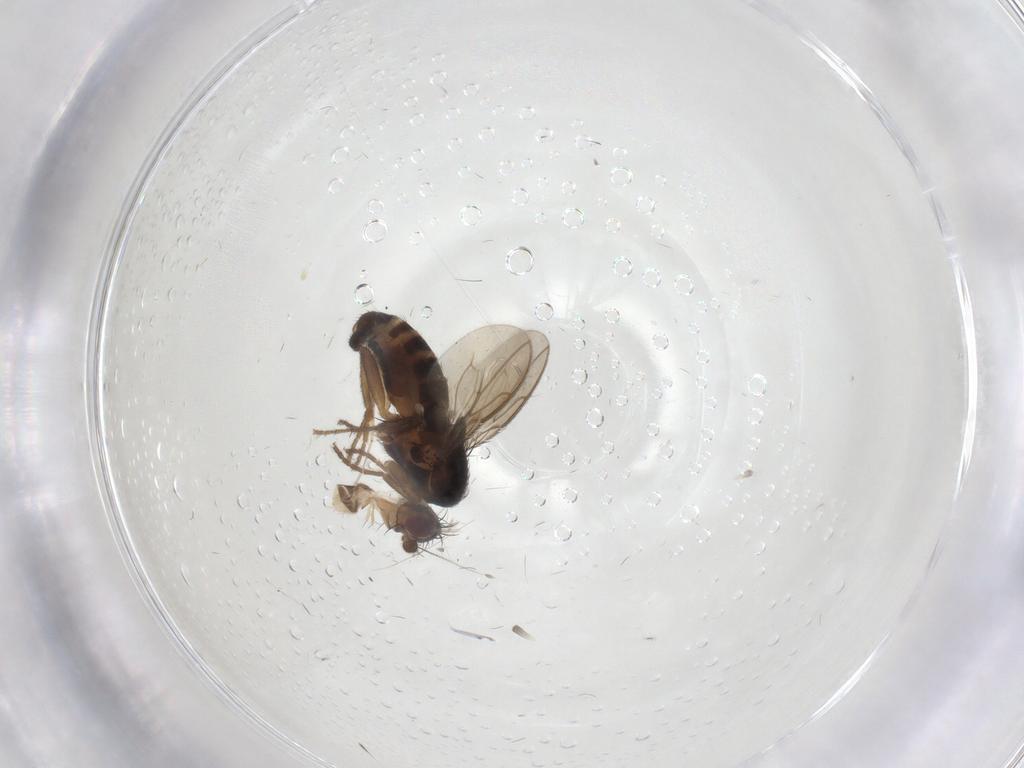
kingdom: Animalia
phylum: Arthropoda
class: Insecta
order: Diptera
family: Cecidomyiidae
